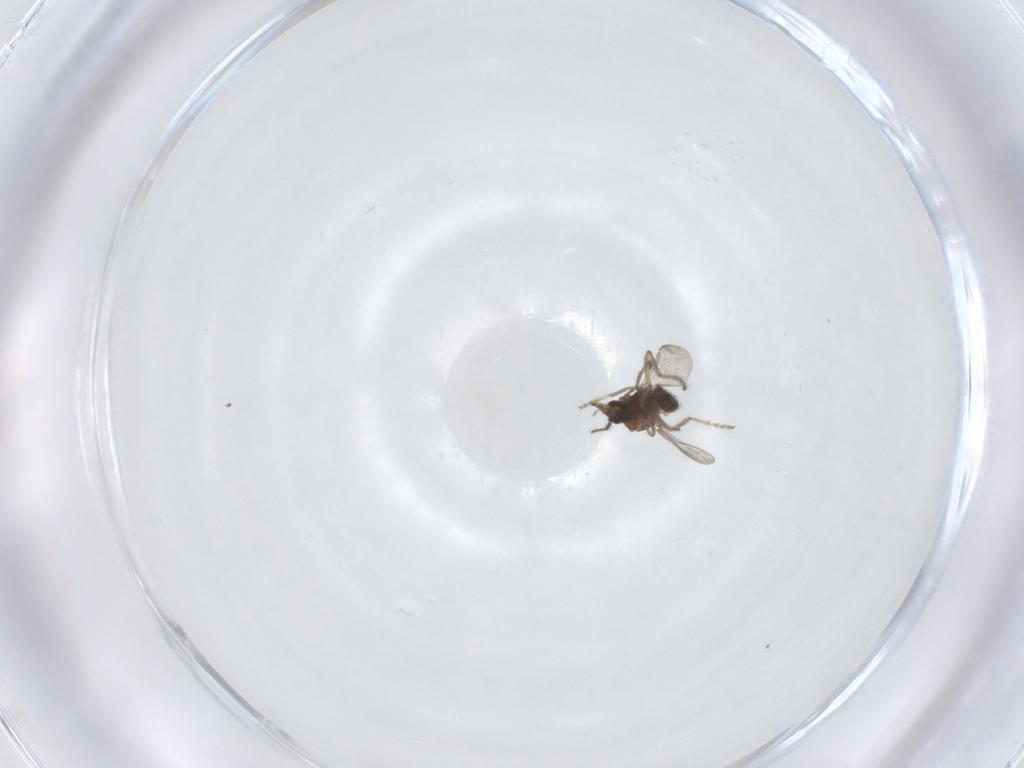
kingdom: Animalia
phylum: Arthropoda
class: Insecta
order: Diptera
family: Ceratopogonidae
